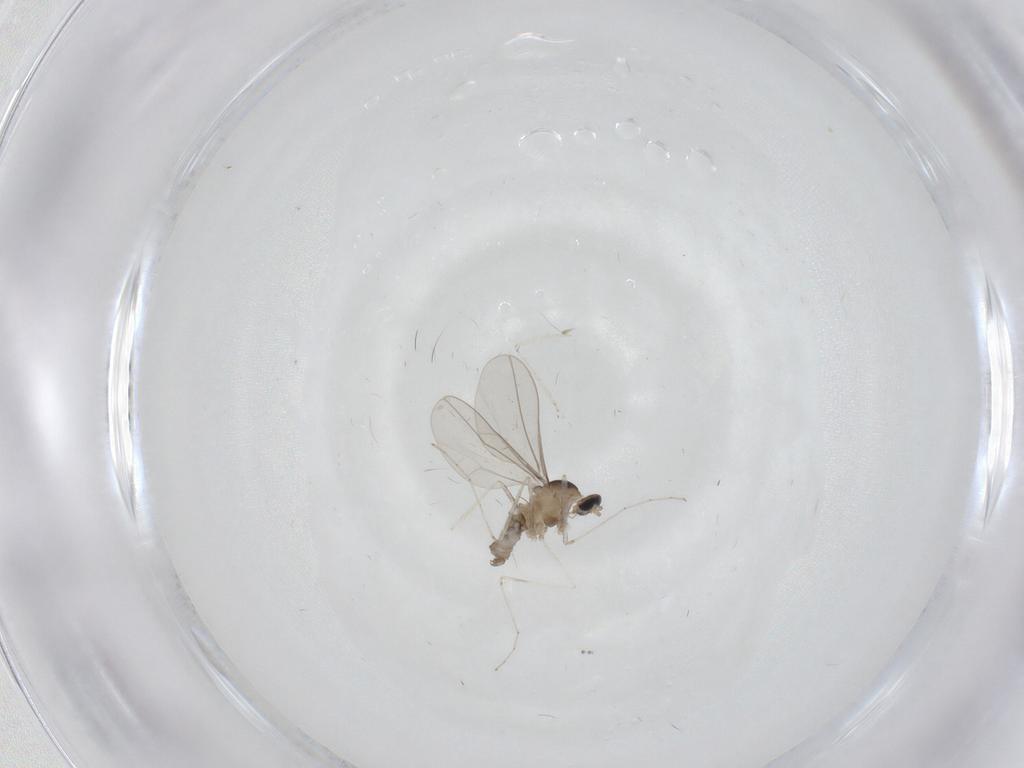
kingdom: Animalia
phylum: Arthropoda
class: Insecta
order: Diptera
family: Cecidomyiidae
